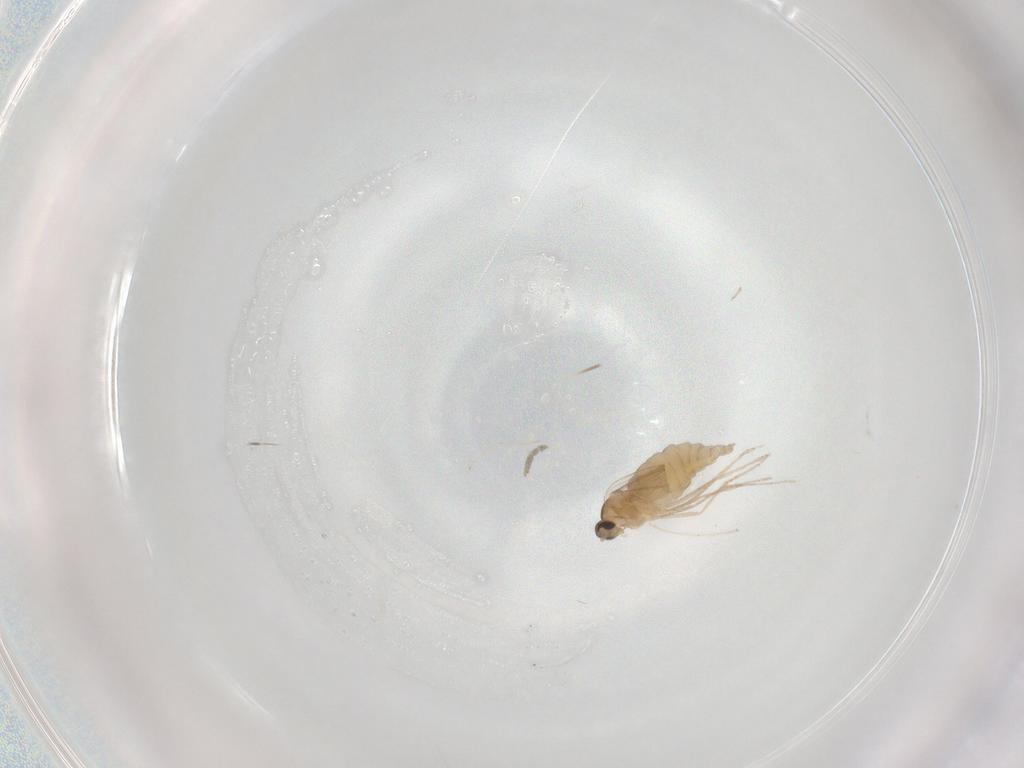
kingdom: Animalia
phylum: Arthropoda
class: Insecta
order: Diptera
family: Cecidomyiidae
